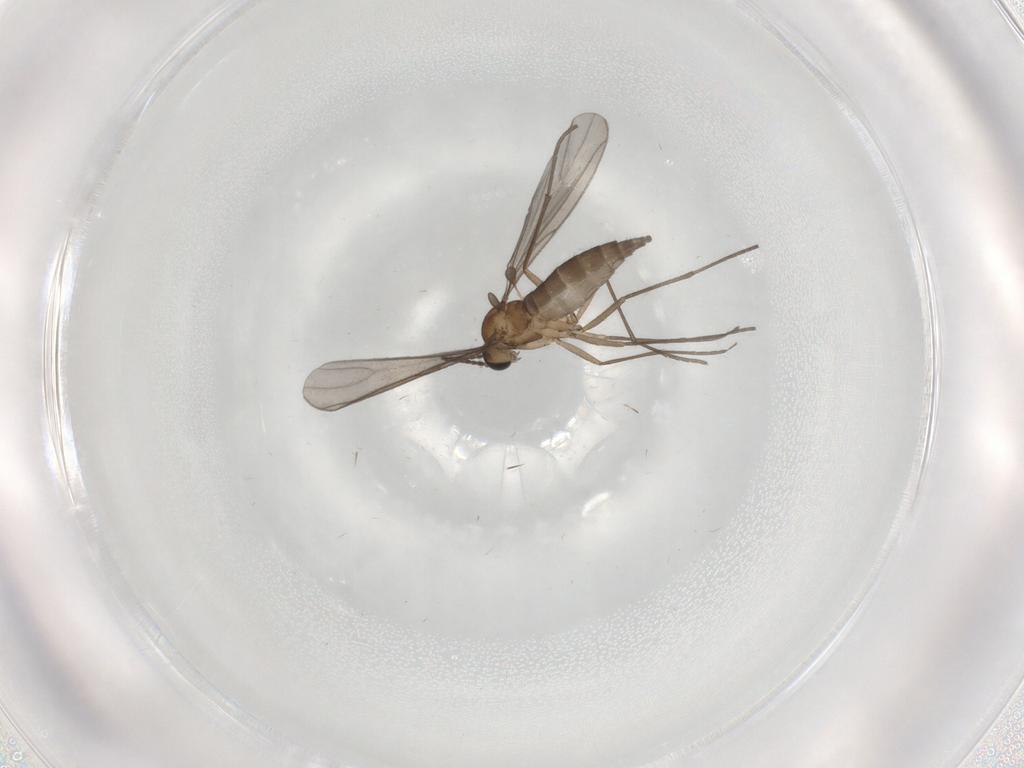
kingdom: Animalia
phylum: Arthropoda
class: Insecta
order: Diptera
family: Sciaridae
